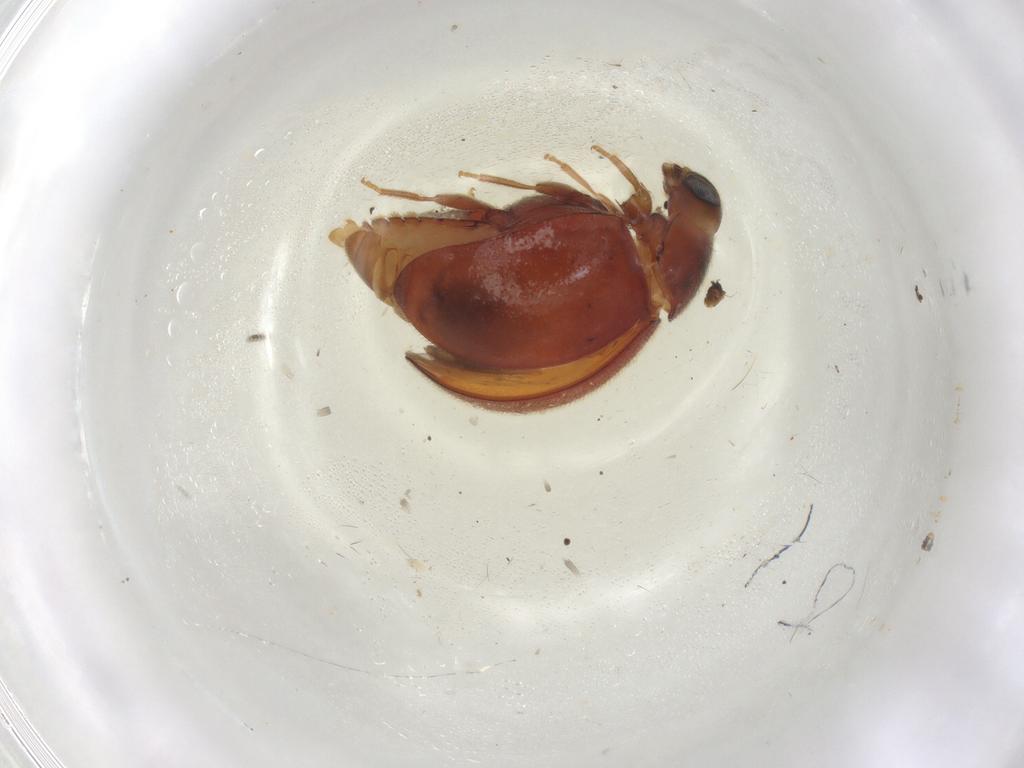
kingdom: Animalia
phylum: Arthropoda
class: Insecta
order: Coleoptera
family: Coccinellidae
